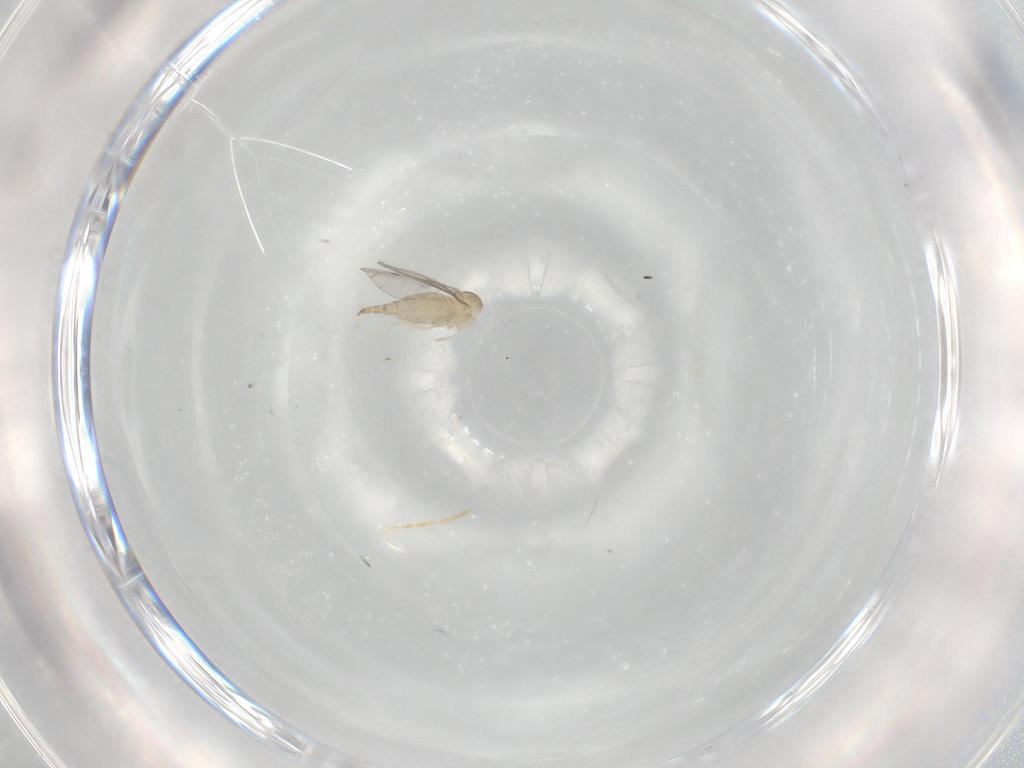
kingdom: Animalia
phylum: Arthropoda
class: Insecta
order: Diptera
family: Cecidomyiidae
